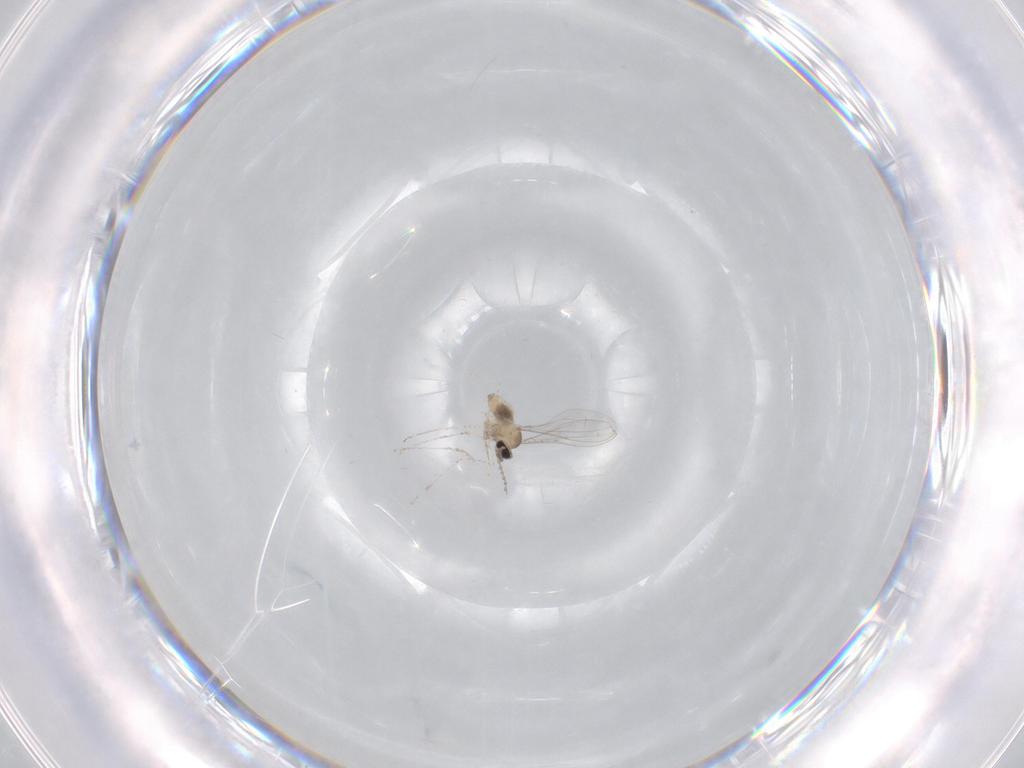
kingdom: Animalia
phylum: Arthropoda
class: Insecta
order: Diptera
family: Cecidomyiidae
